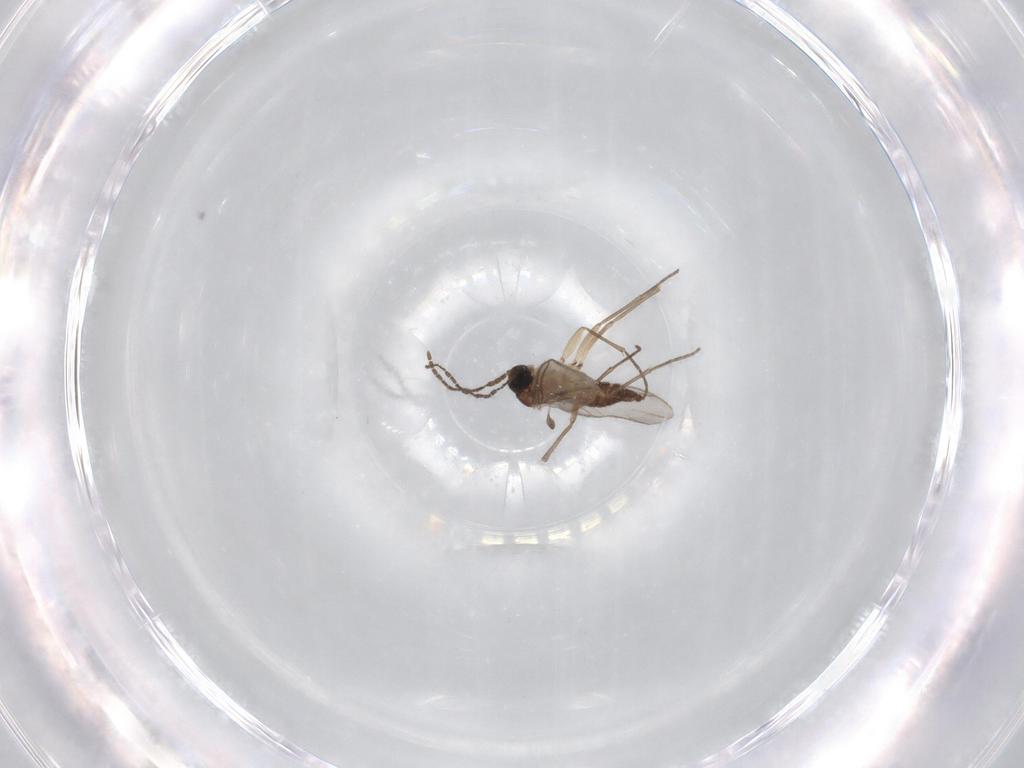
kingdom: Animalia
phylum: Arthropoda
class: Insecta
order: Diptera
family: Sciaridae
